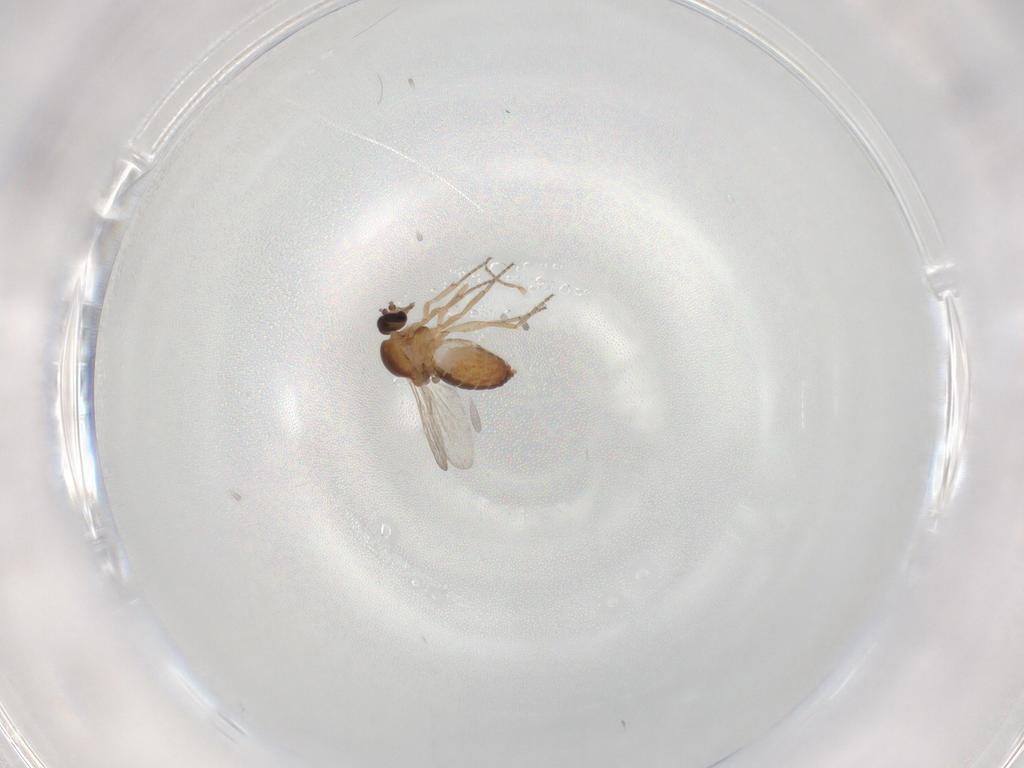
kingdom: Animalia
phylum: Arthropoda
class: Insecta
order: Diptera
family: Ceratopogonidae
